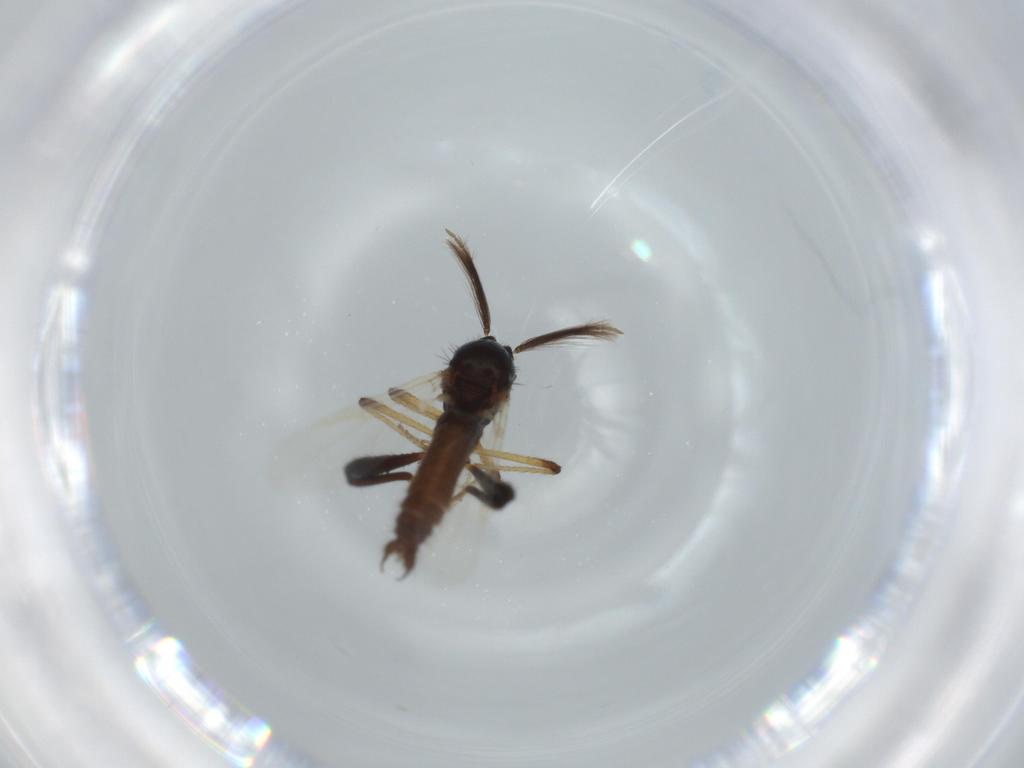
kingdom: Animalia
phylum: Arthropoda
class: Insecta
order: Diptera
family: Ceratopogonidae
